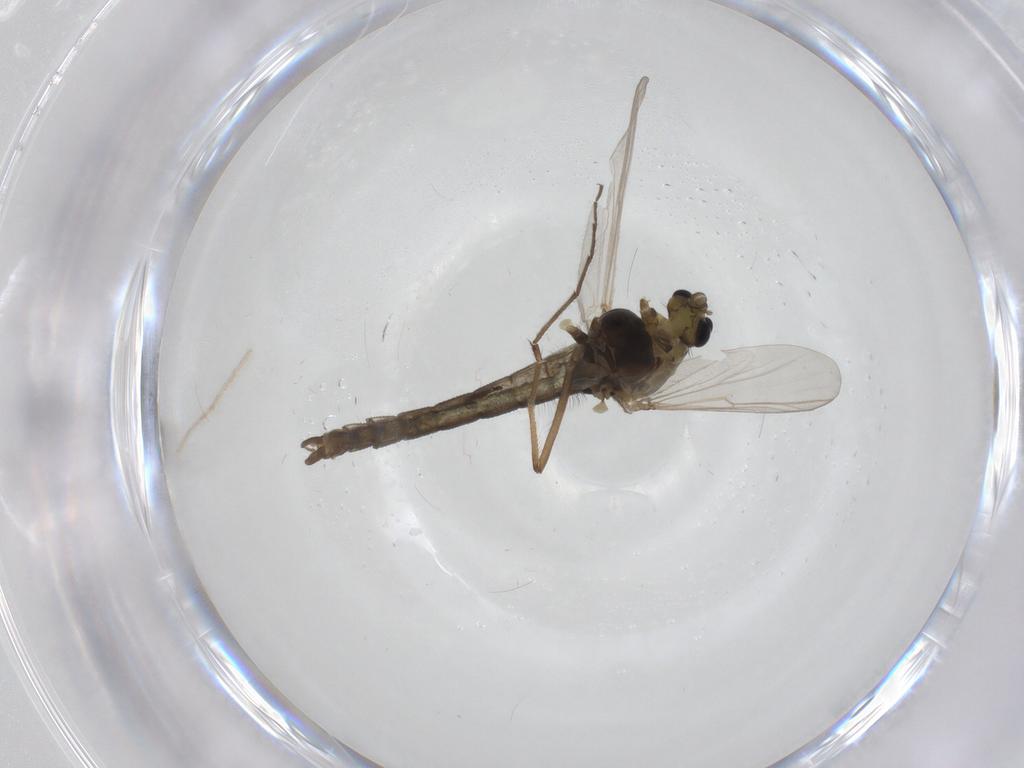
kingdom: Animalia
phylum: Arthropoda
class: Insecta
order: Diptera
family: Chironomidae
